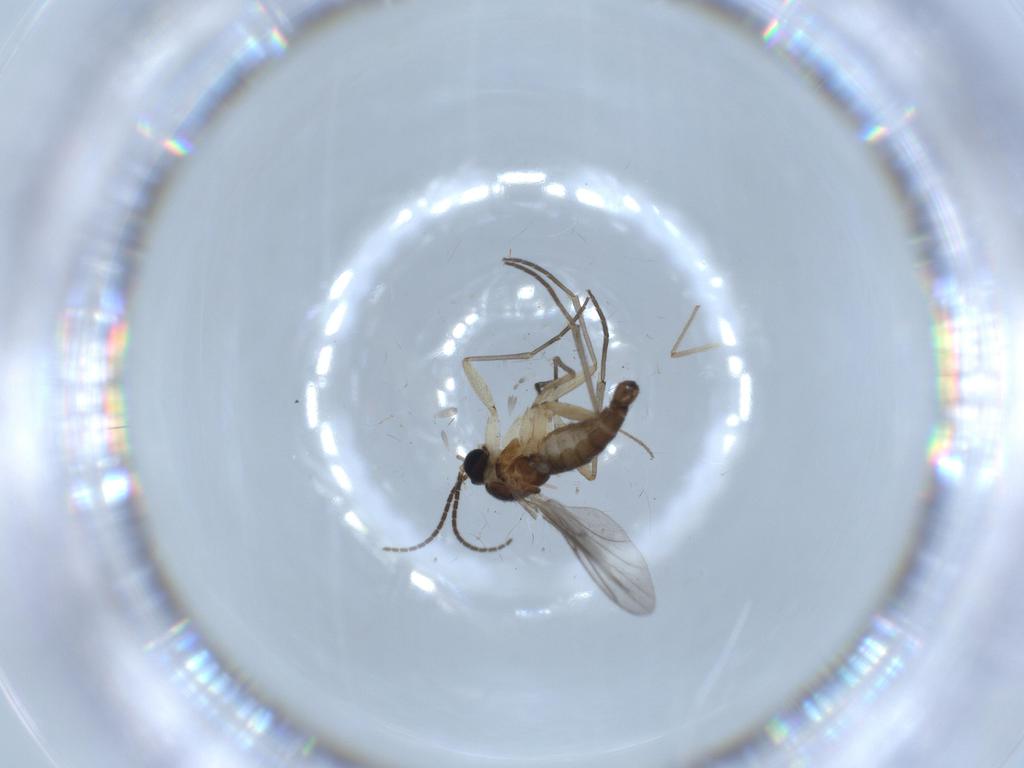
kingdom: Animalia
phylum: Arthropoda
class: Insecta
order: Diptera
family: Sciaridae
